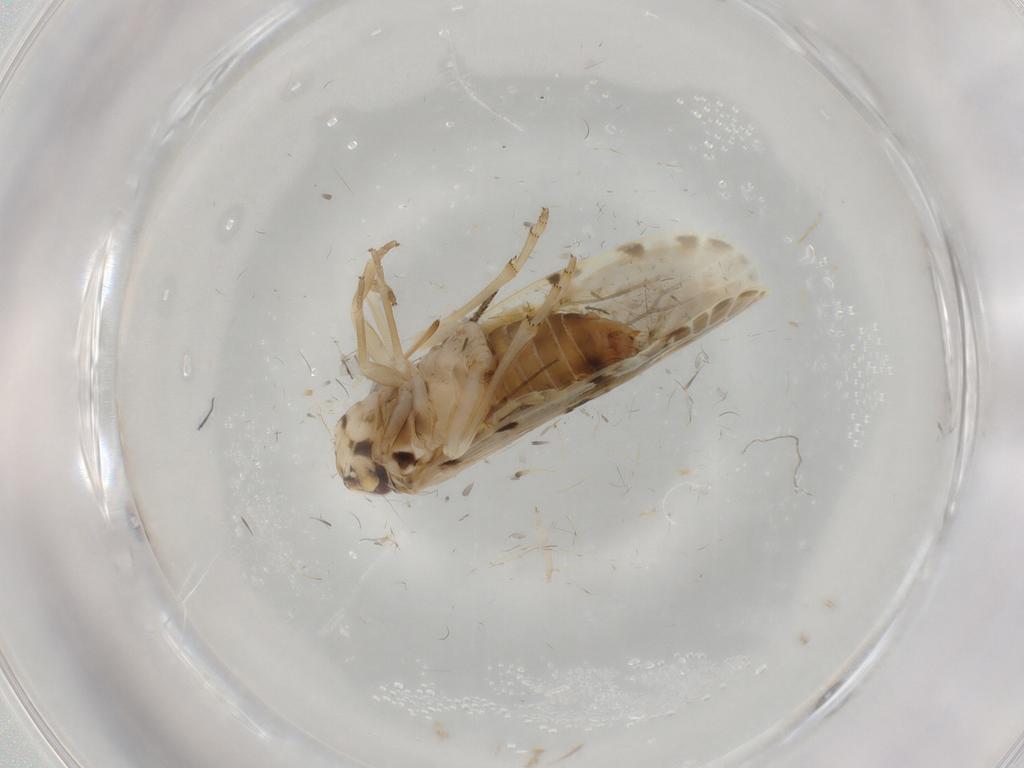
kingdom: Animalia
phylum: Arthropoda
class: Insecta
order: Hemiptera
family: Achilidae
